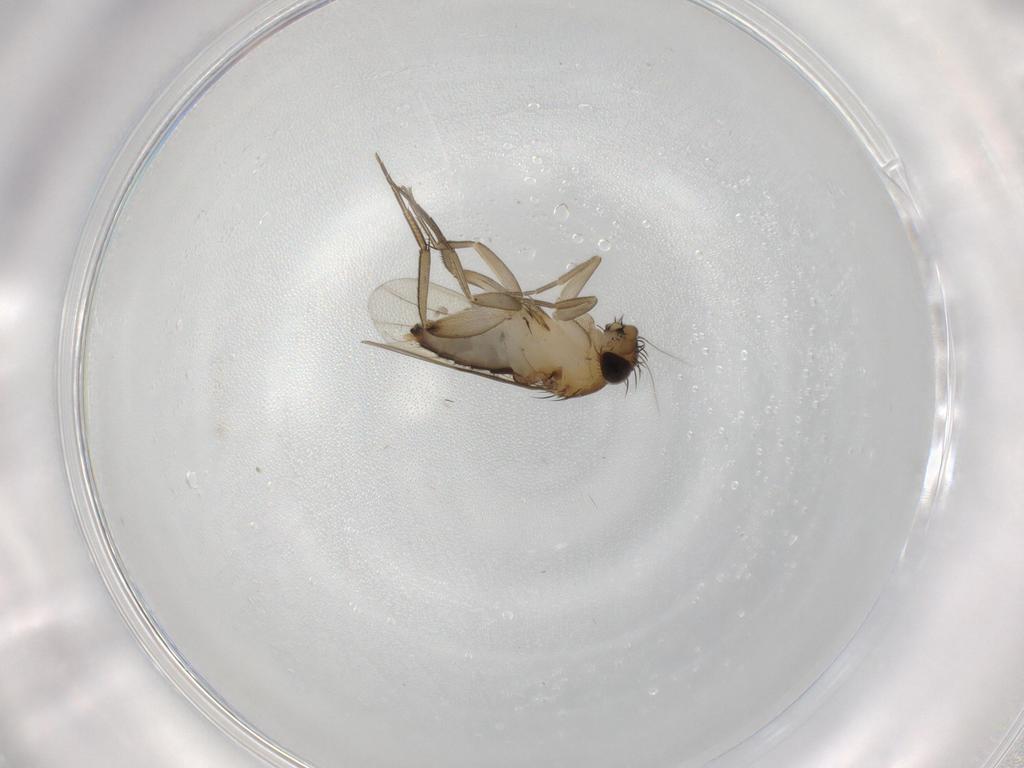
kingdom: Animalia
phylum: Arthropoda
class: Insecta
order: Diptera
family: Phoridae
